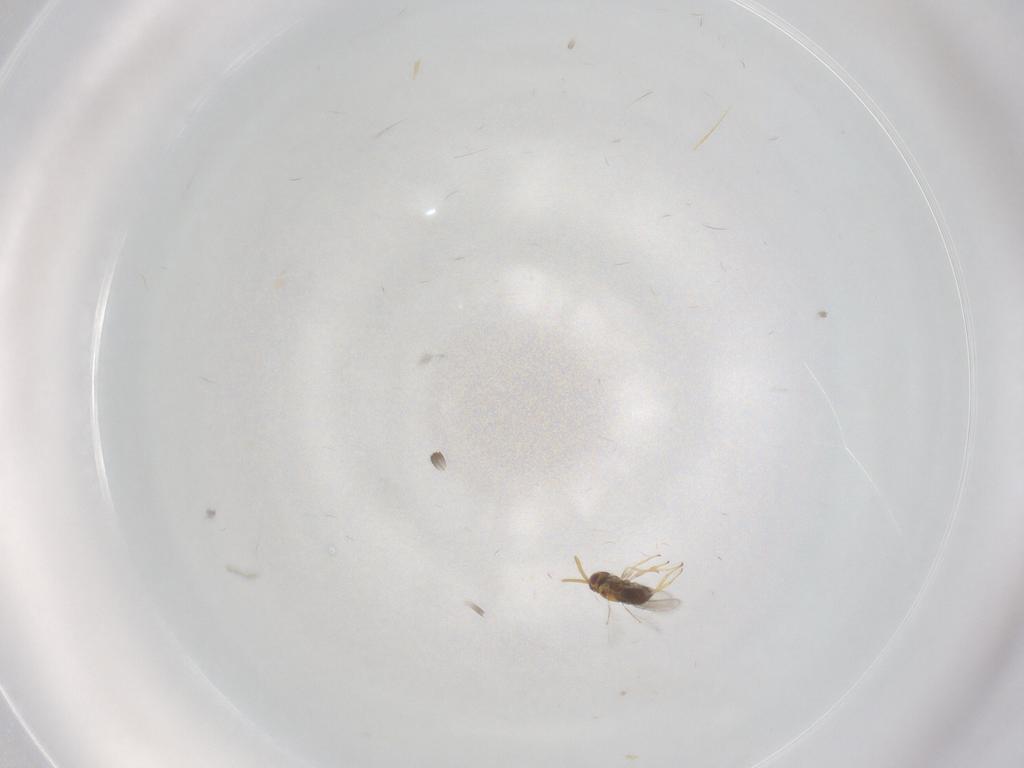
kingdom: Animalia
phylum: Arthropoda
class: Insecta
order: Hymenoptera
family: Aphelinidae
